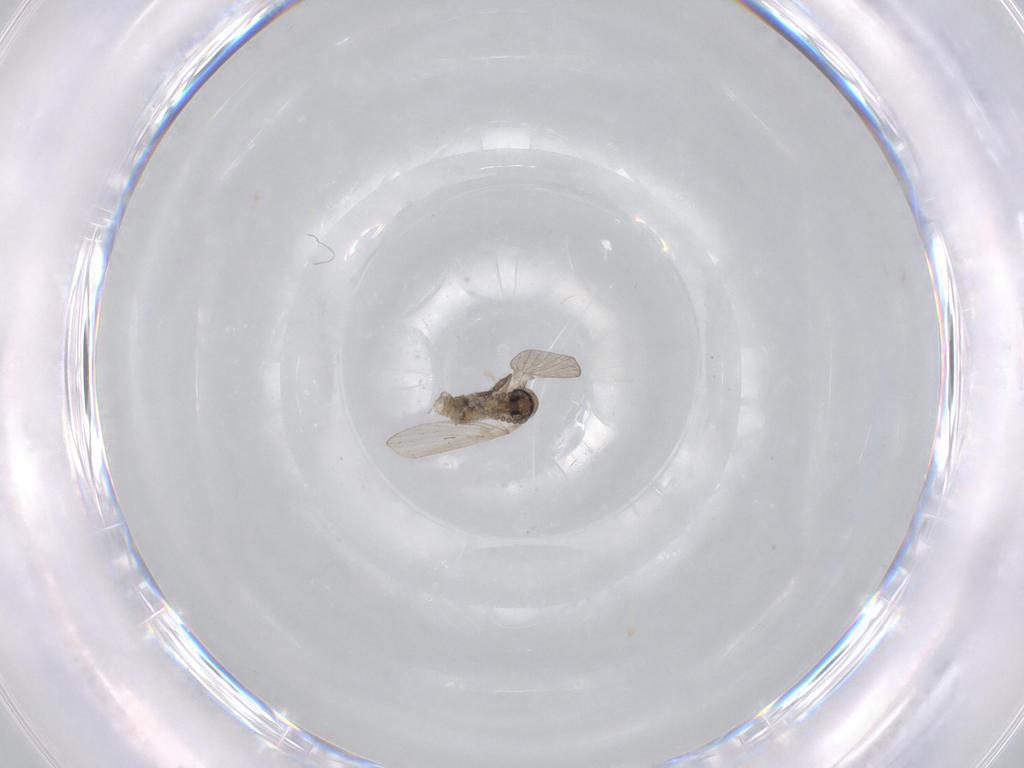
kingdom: Animalia
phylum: Arthropoda
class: Insecta
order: Diptera
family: Psychodidae
